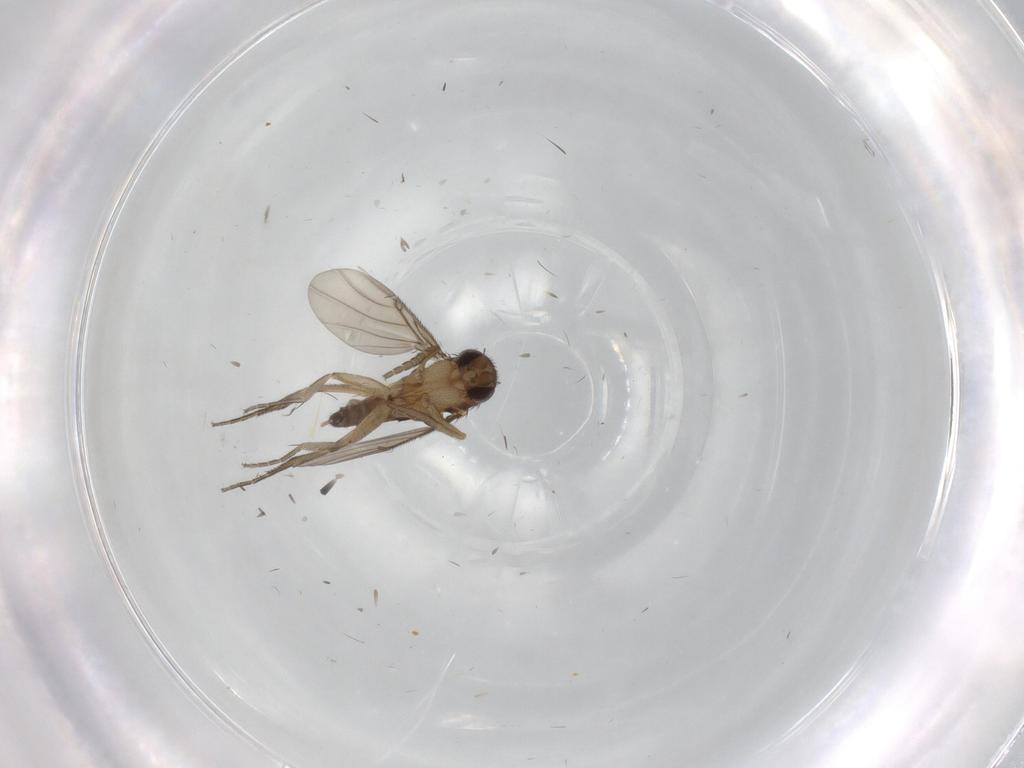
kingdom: Animalia
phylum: Arthropoda
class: Insecta
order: Diptera
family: Phoridae
